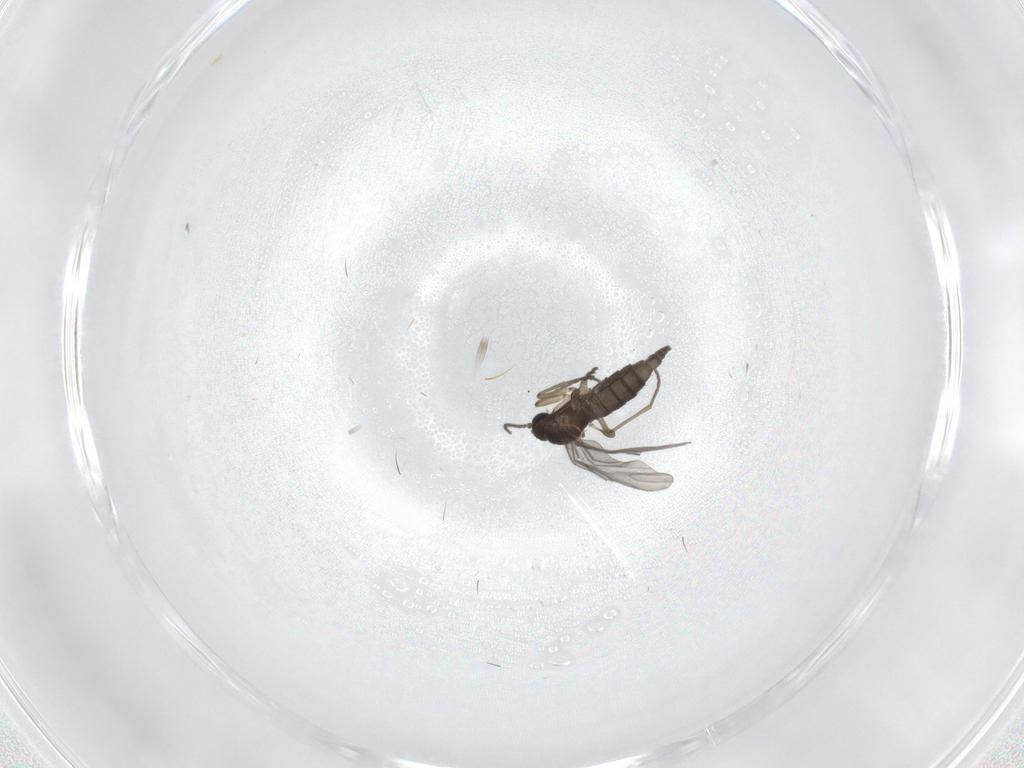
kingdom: Animalia
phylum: Arthropoda
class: Insecta
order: Diptera
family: Sciaridae
